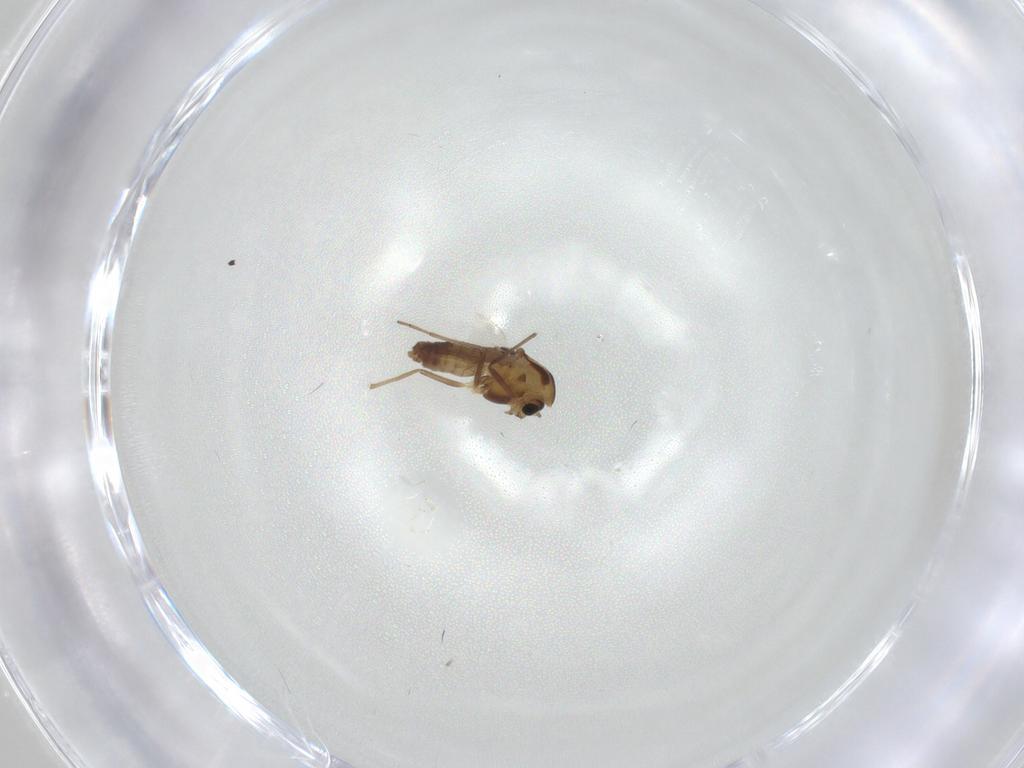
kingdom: Animalia
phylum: Arthropoda
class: Insecta
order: Diptera
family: Chironomidae
